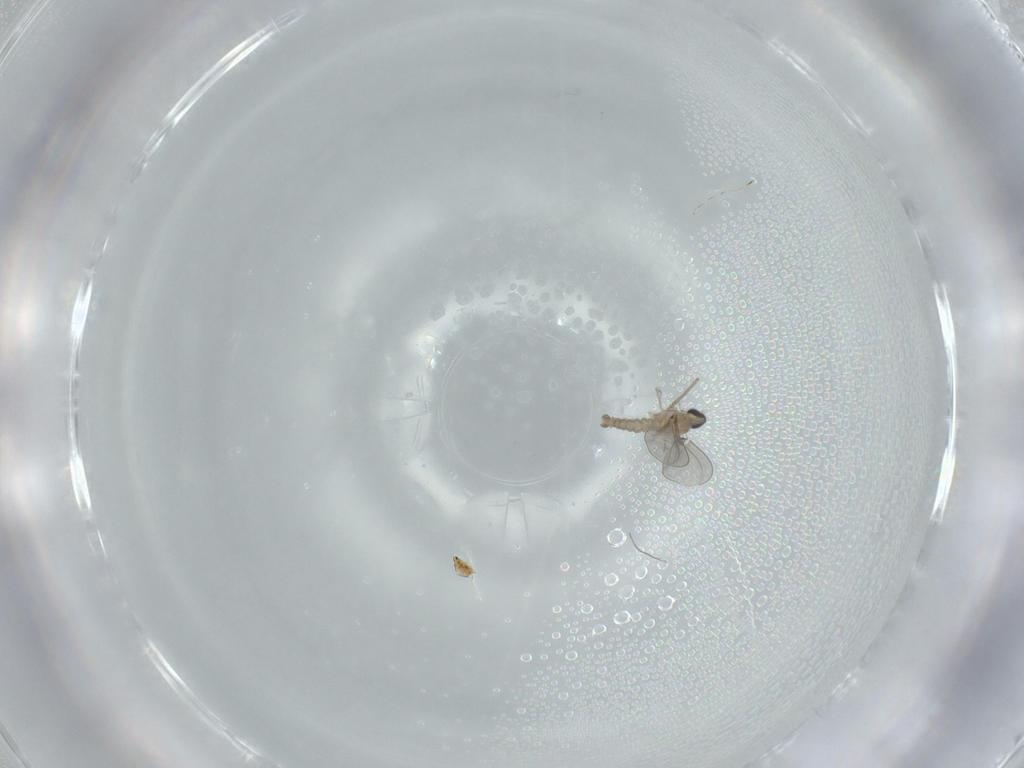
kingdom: Animalia
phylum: Arthropoda
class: Insecta
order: Diptera
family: Cecidomyiidae
